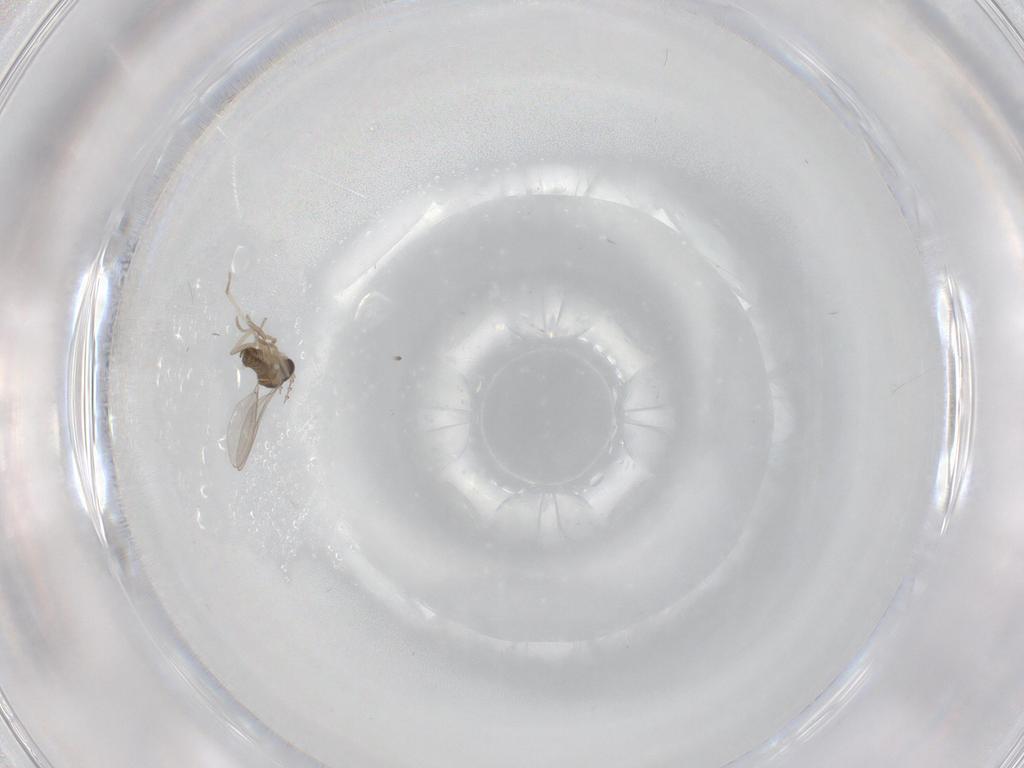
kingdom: Animalia
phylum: Arthropoda
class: Insecta
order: Diptera
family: Cecidomyiidae
